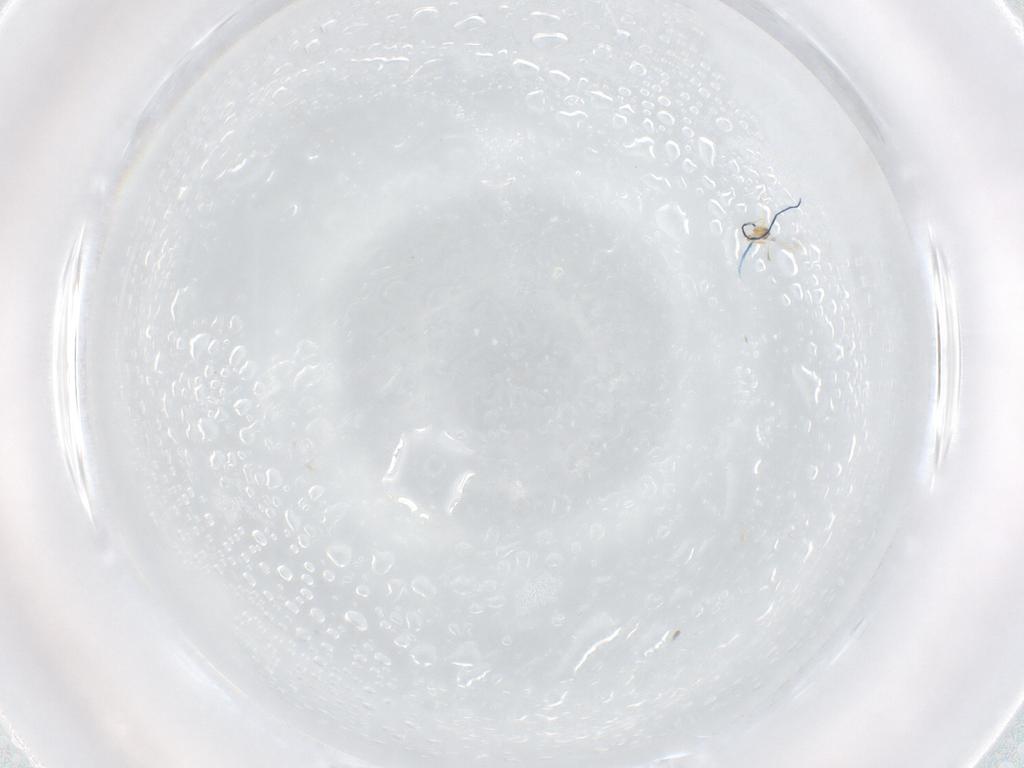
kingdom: Animalia
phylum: Arthropoda
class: Insecta
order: Hymenoptera
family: Mymaridae
